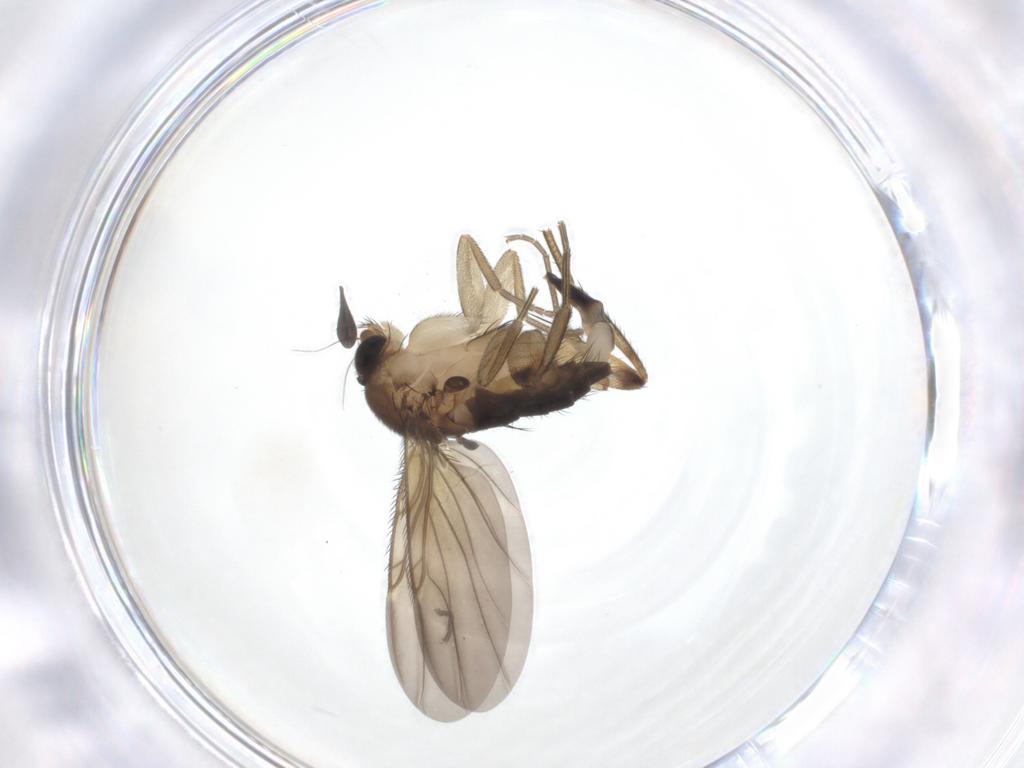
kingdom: Animalia
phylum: Arthropoda
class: Insecta
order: Diptera
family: Phoridae
